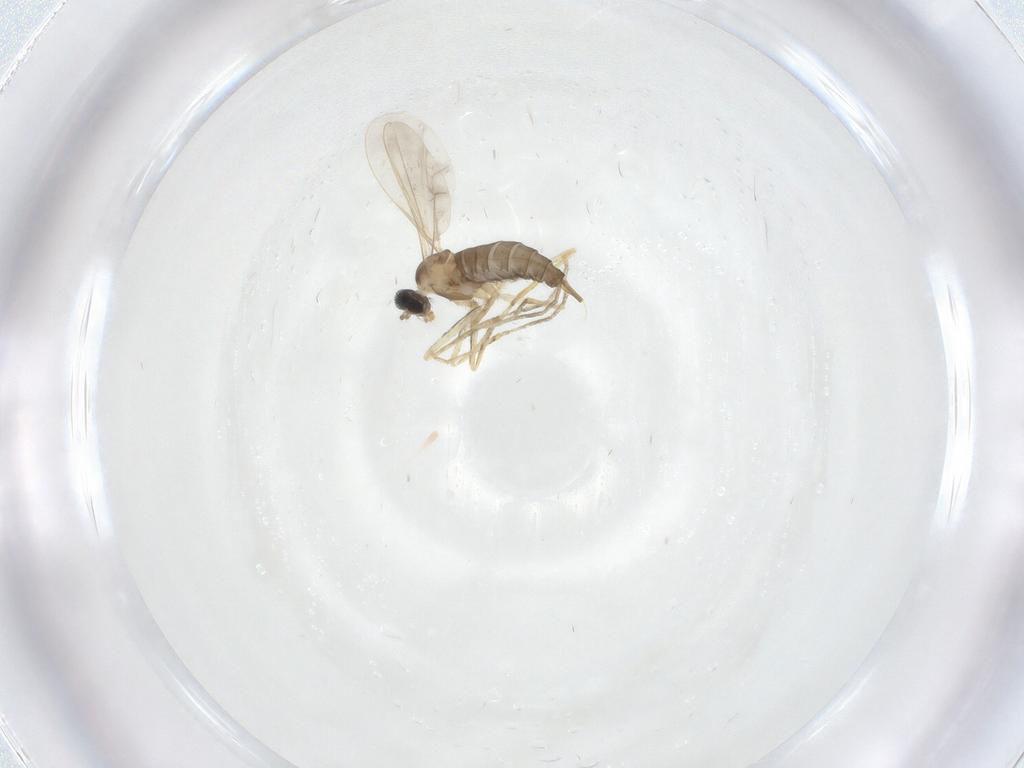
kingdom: Animalia
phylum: Arthropoda
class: Insecta
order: Diptera
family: Cecidomyiidae
